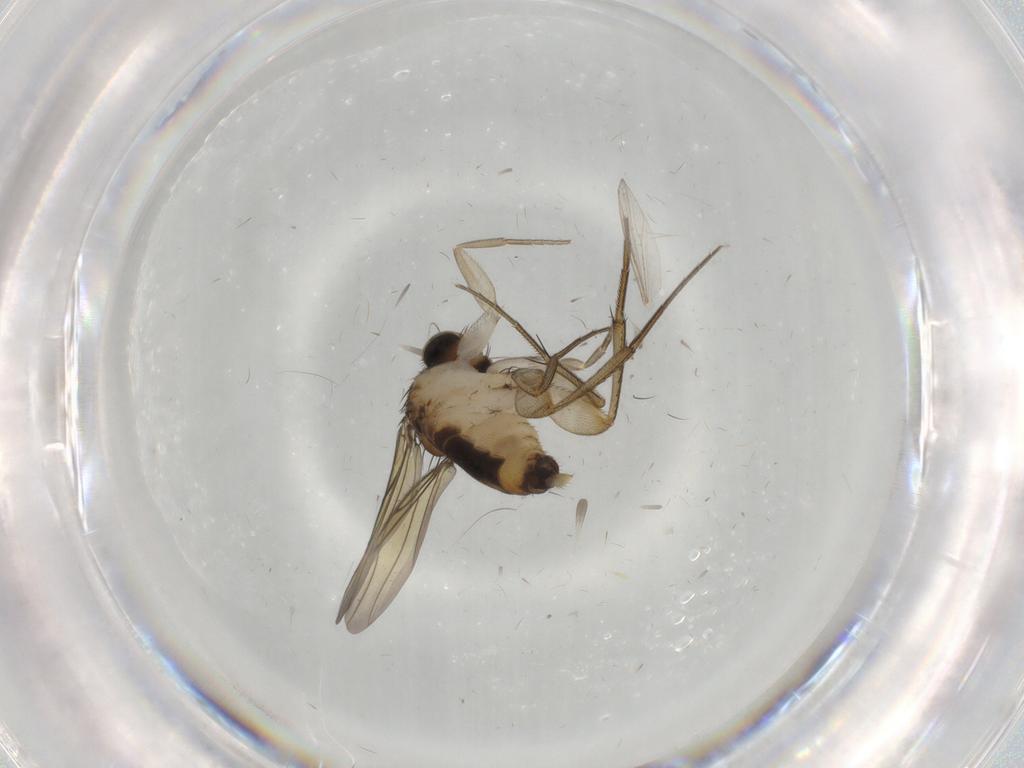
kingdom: Animalia
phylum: Arthropoda
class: Insecta
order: Diptera
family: Chironomidae
